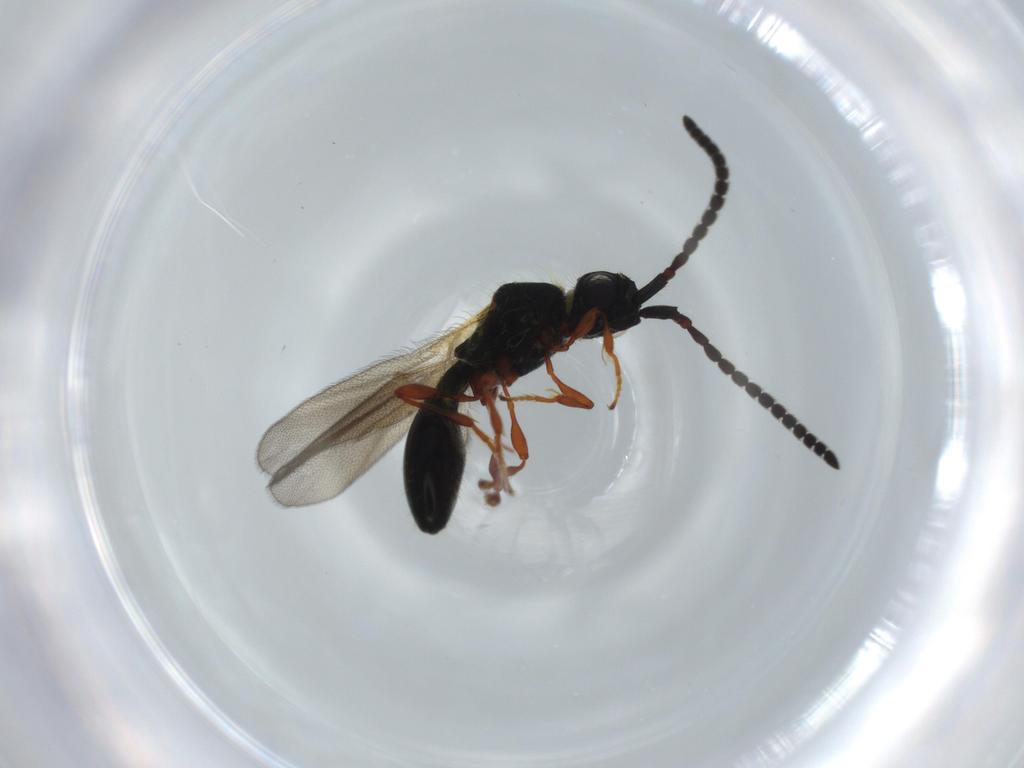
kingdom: Animalia
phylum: Arthropoda
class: Insecta
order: Hymenoptera
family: Diapriidae
